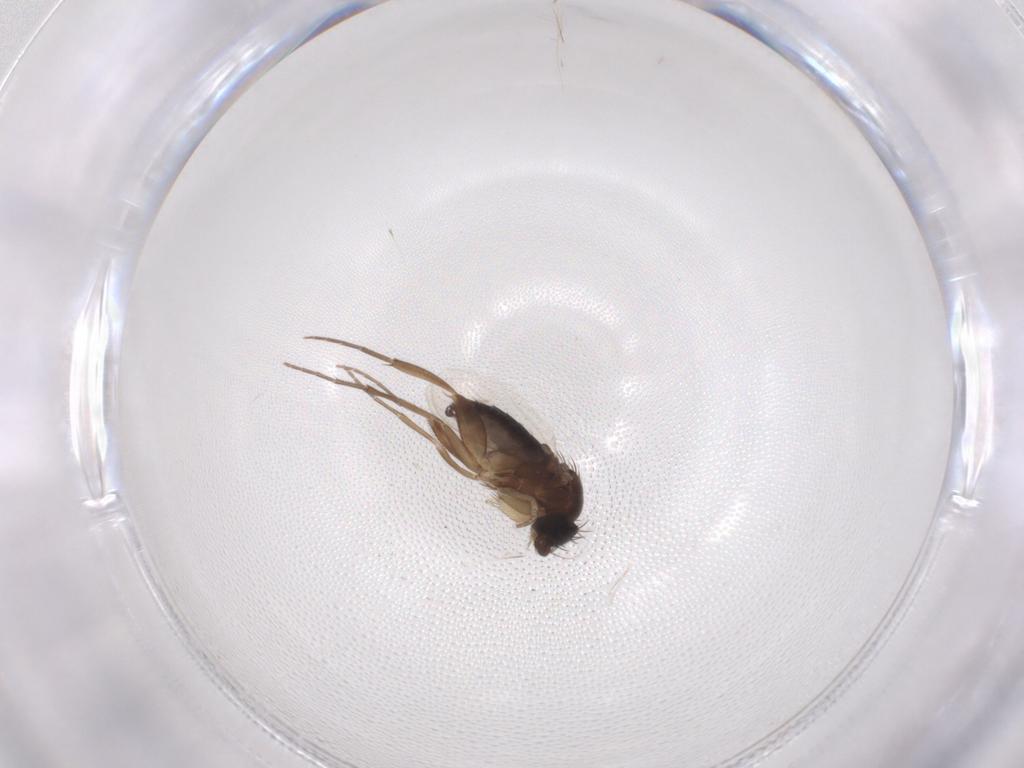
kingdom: Animalia
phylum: Arthropoda
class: Insecta
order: Diptera
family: Phoridae
